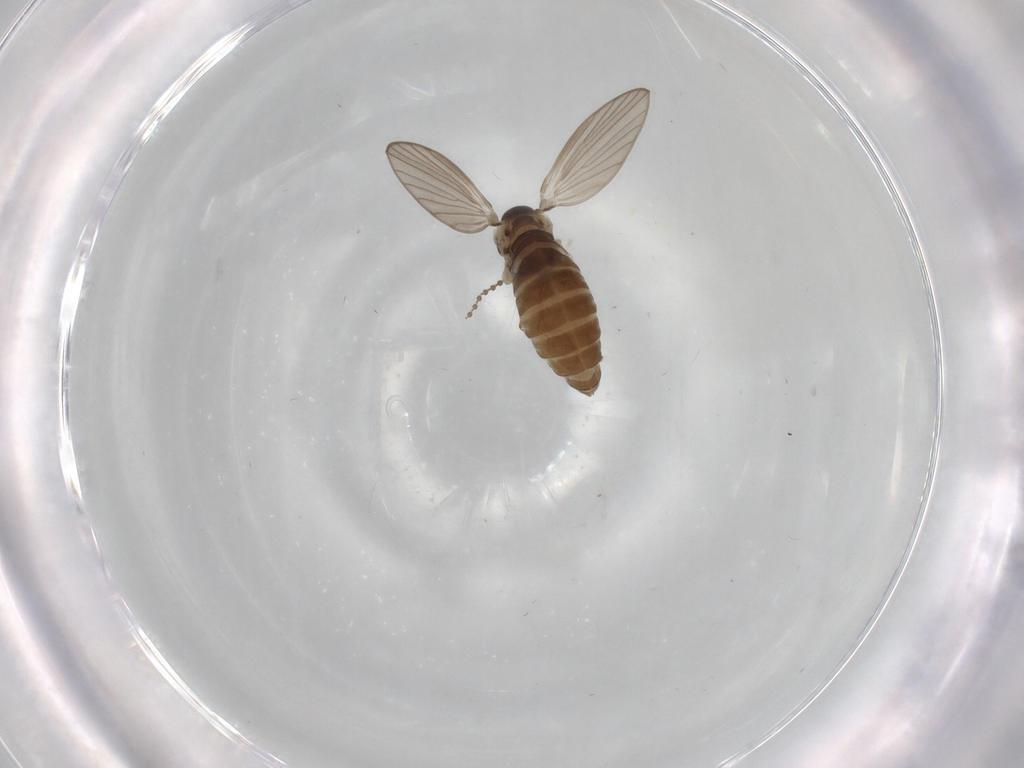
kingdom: Animalia
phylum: Arthropoda
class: Insecta
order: Diptera
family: Psychodidae
